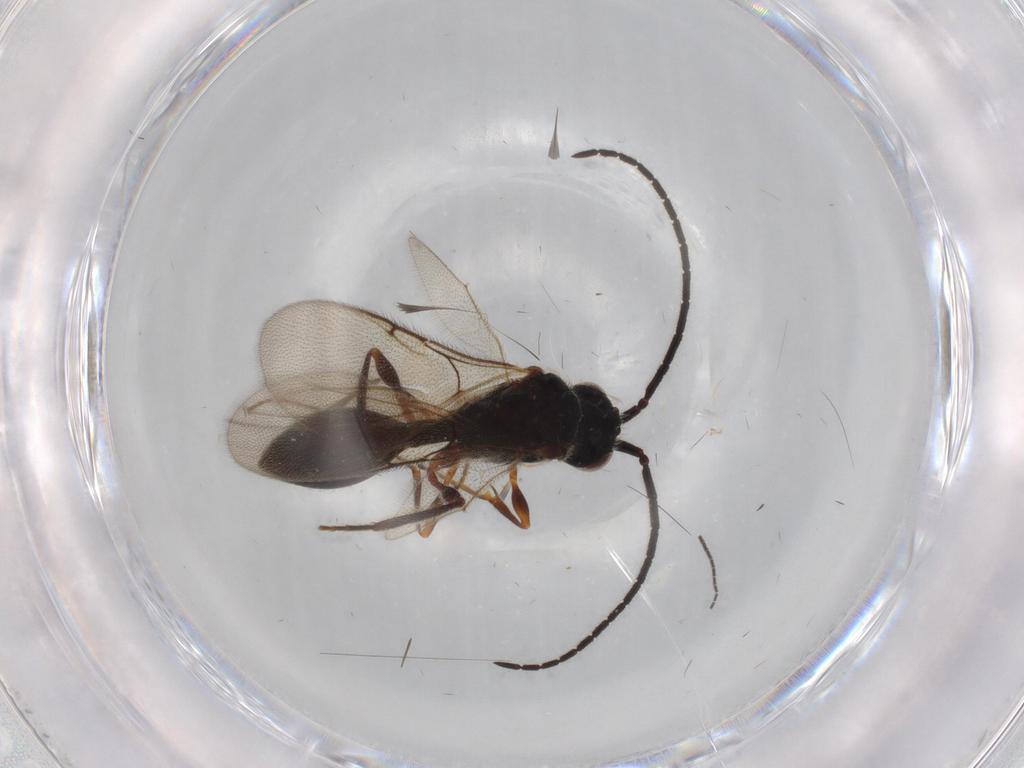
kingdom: Animalia
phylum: Arthropoda
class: Insecta
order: Hymenoptera
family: Diapriidae
